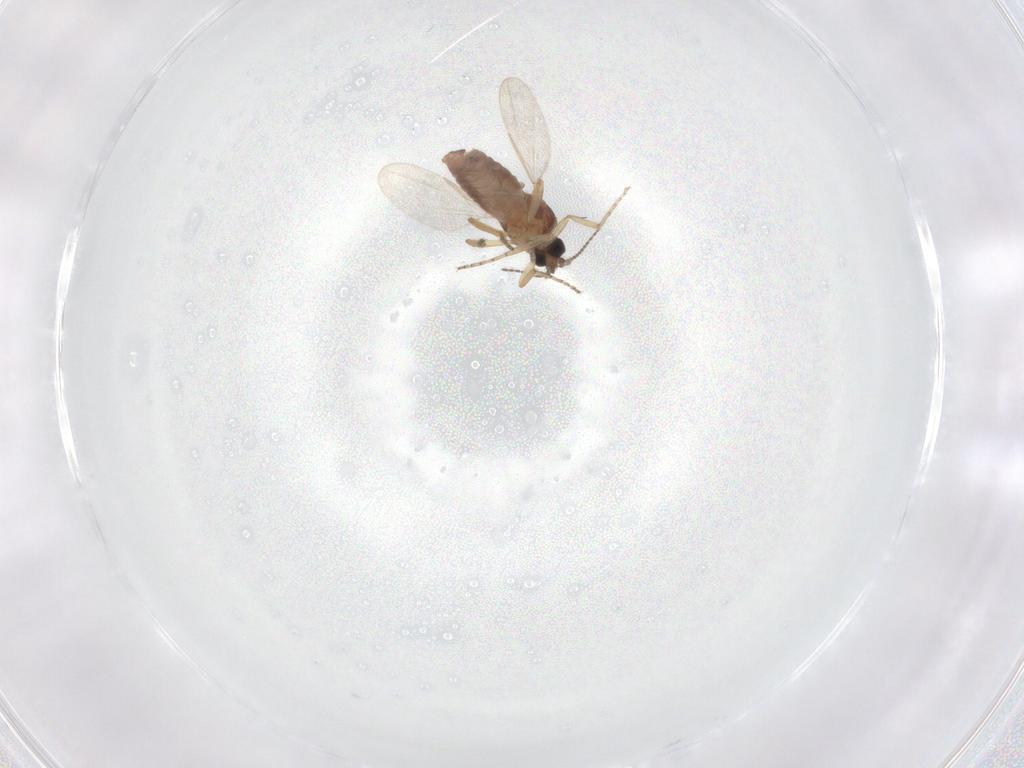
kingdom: Animalia
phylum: Arthropoda
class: Insecta
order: Diptera
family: Ceratopogonidae
